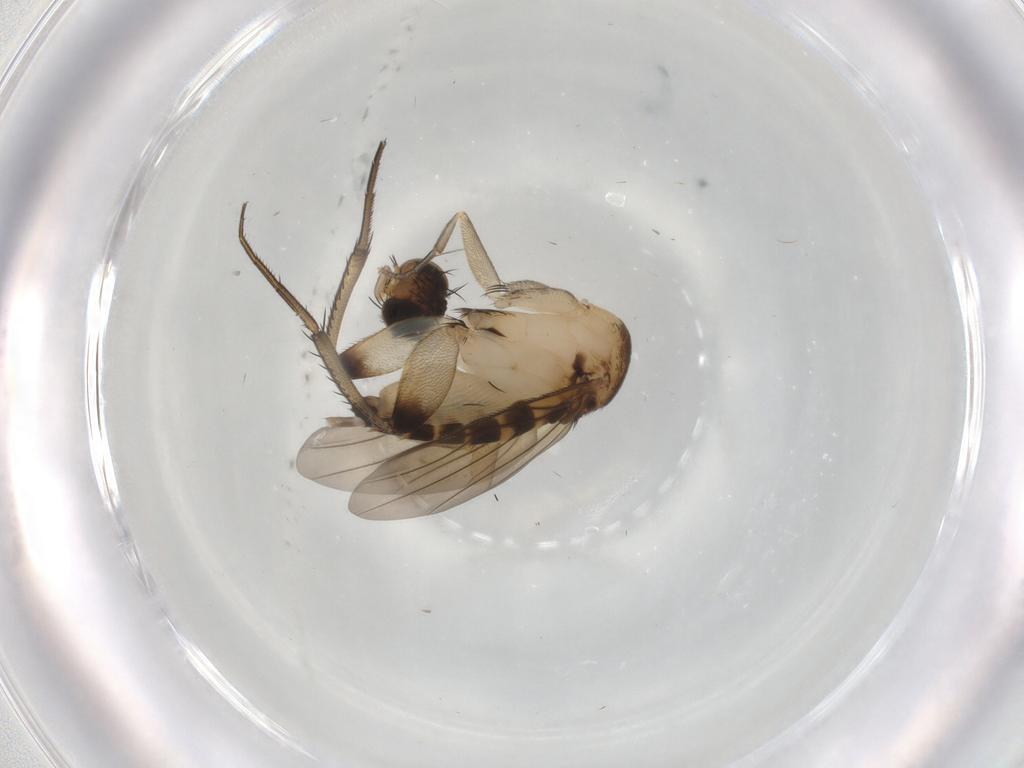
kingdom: Animalia
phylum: Arthropoda
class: Insecta
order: Diptera
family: Phoridae
